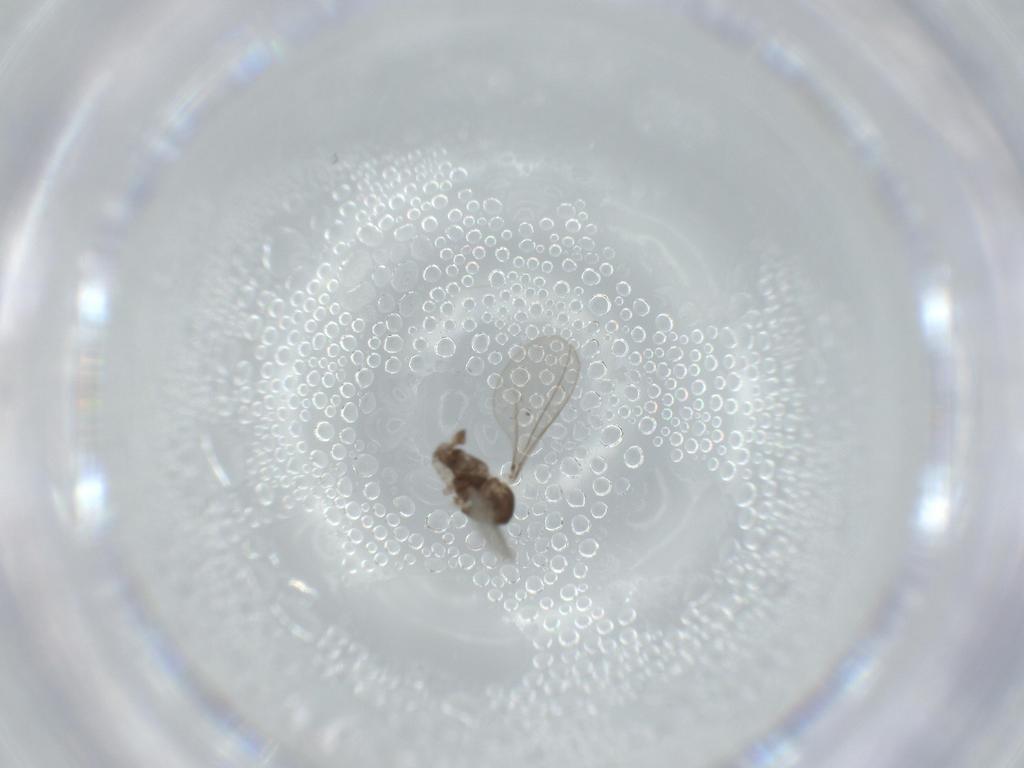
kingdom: Animalia
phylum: Arthropoda
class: Insecta
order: Diptera
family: Cecidomyiidae
